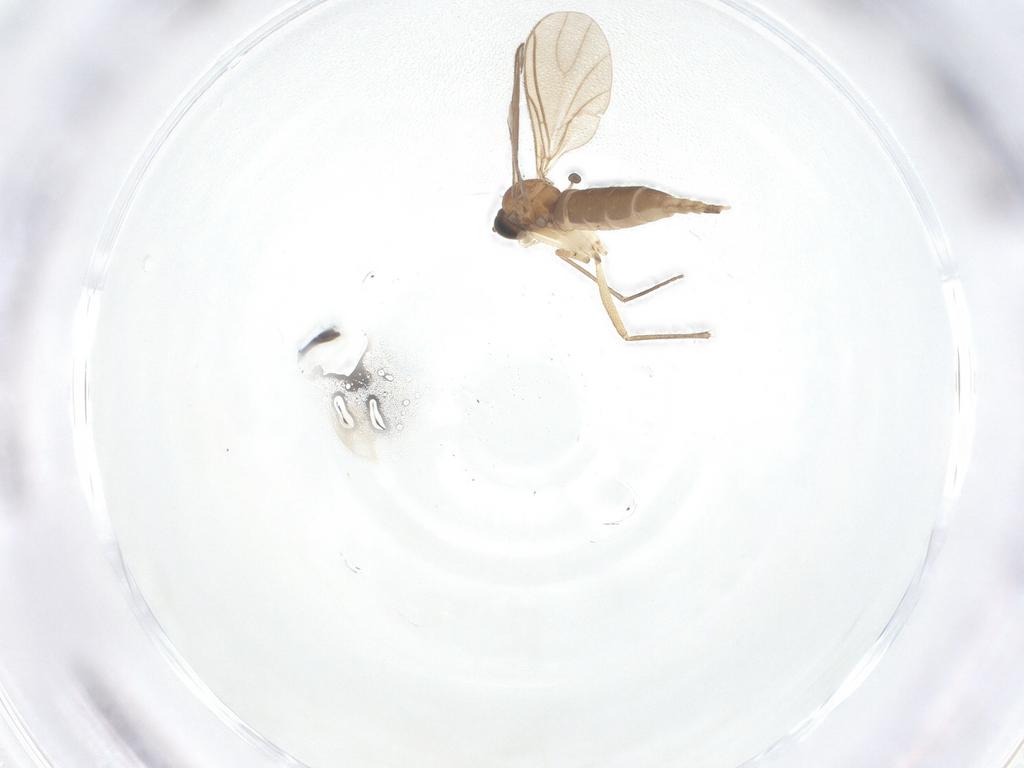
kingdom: Animalia
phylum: Arthropoda
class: Insecta
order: Diptera
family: Sciaridae
